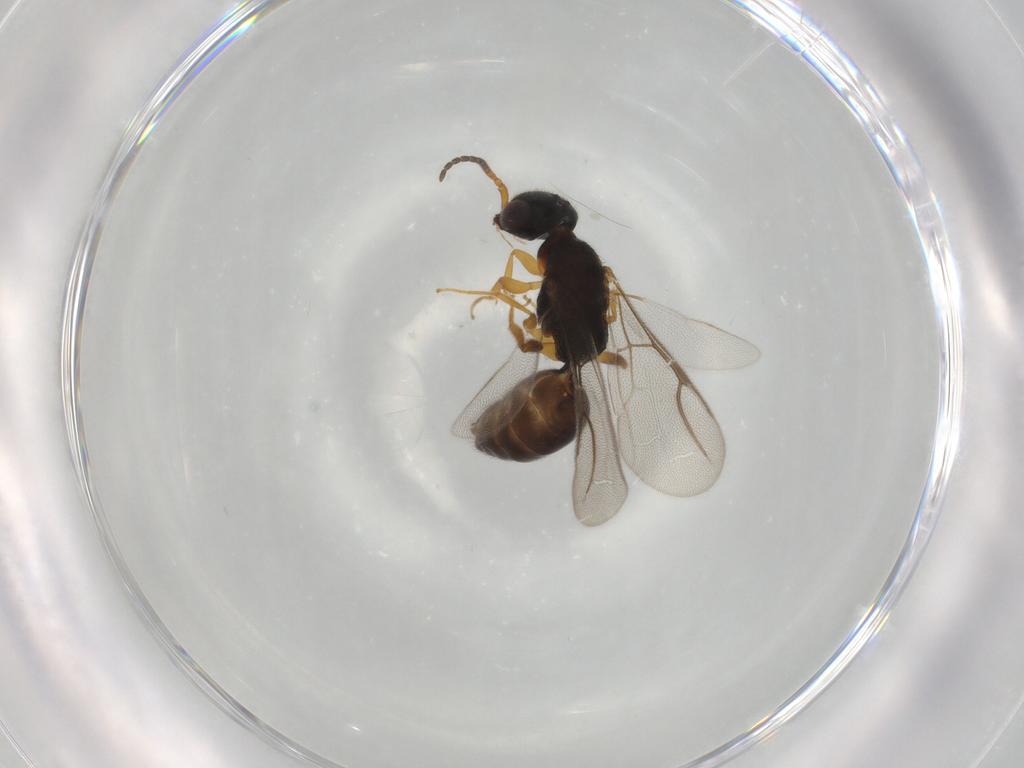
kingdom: Animalia
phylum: Arthropoda
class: Insecta
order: Hymenoptera
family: Bethylidae
